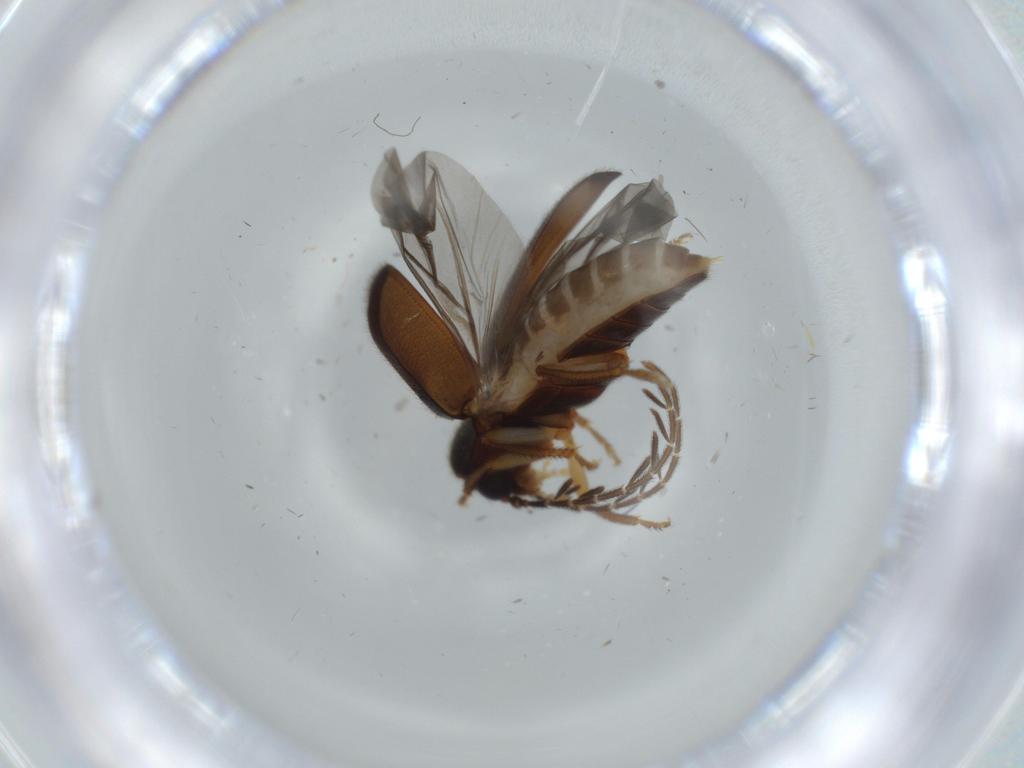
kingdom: Animalia
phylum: Arthropoda
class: Insecta
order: Coleoptera
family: Ptilodactylidae
